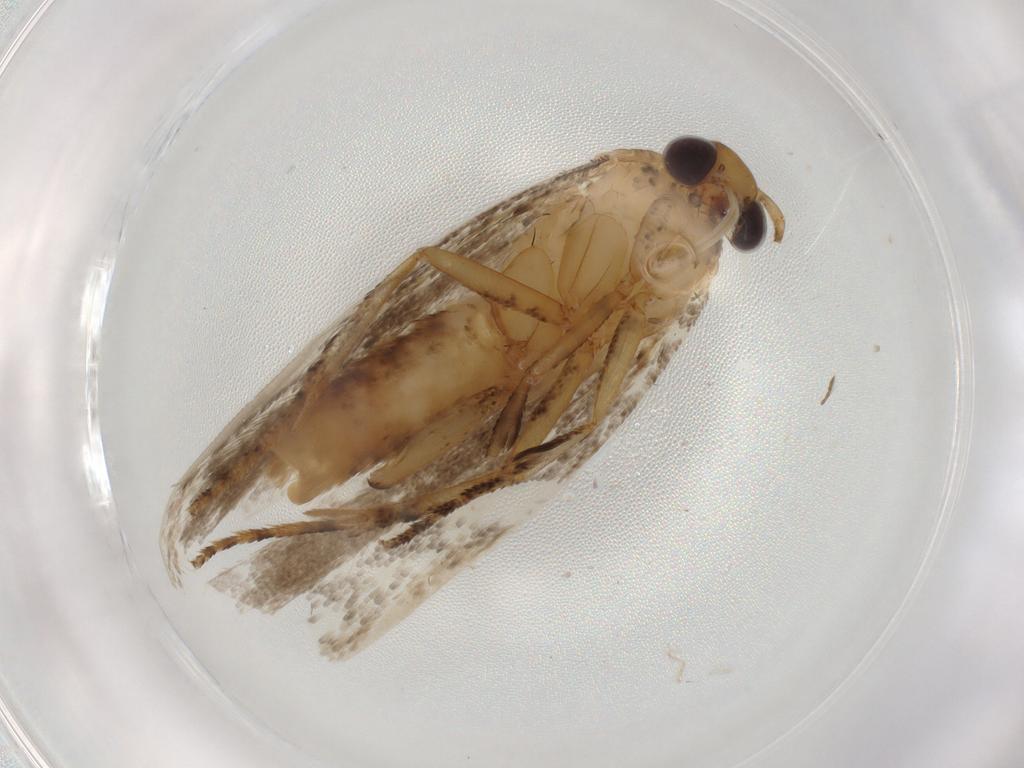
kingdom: Animalia
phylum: Arthropoda
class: Insecta
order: Lepidoptera
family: Gelechiidae
